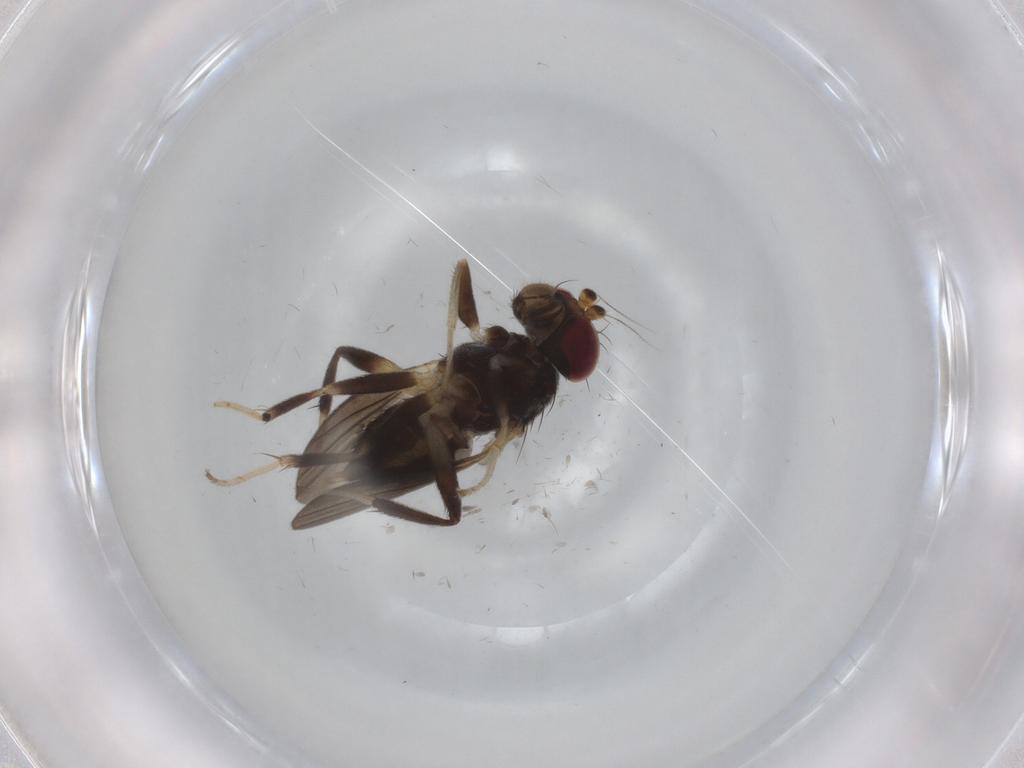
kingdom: Animalia
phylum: Arthropoda
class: Insecta
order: Diptera
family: Clusiidae
